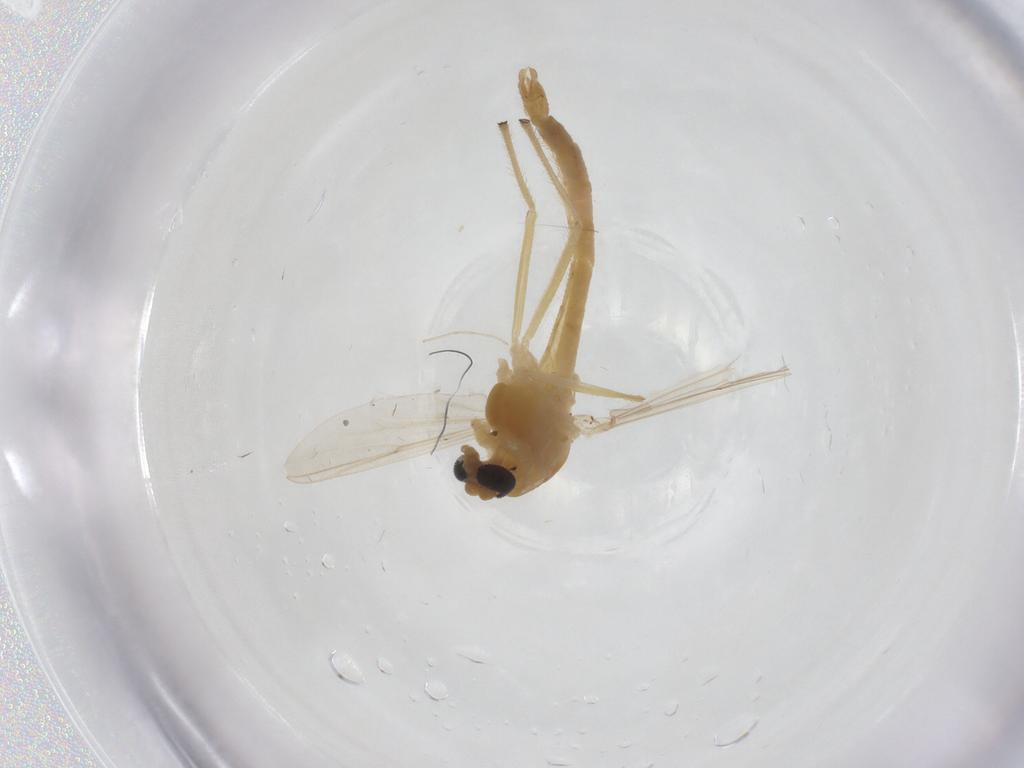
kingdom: Animalia
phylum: Arthropoda
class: Insecta
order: Diptera
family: Chironomidae
